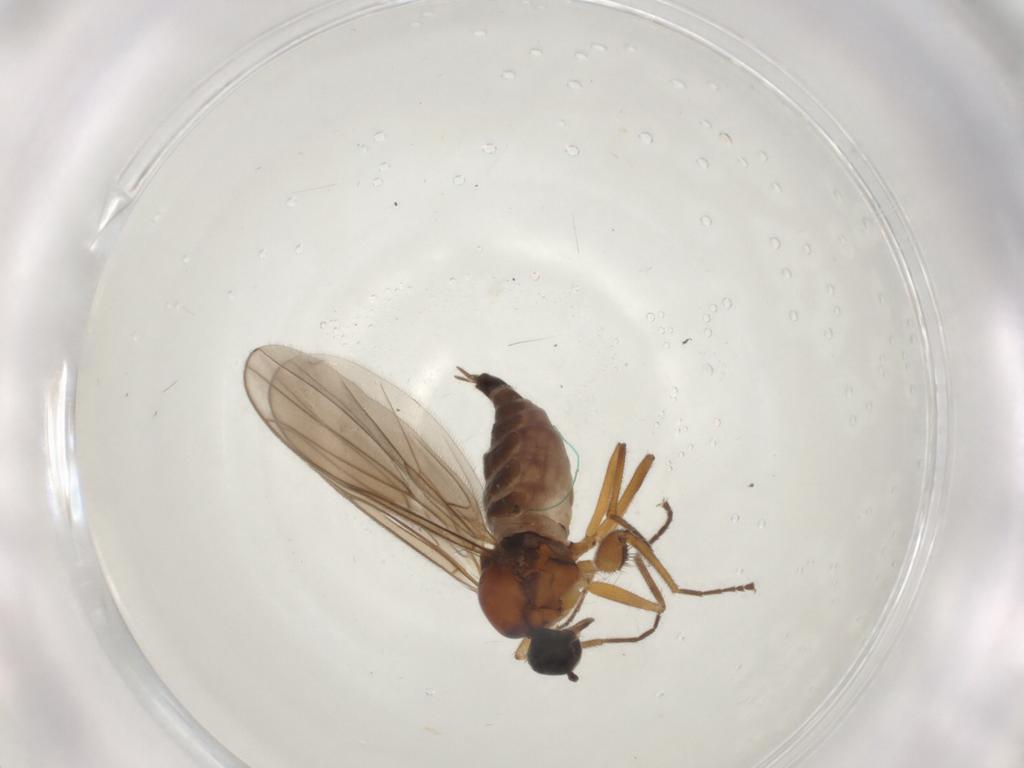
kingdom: Animalia
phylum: Arthropoda
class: Insecta
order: Diptera
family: Hybotidae
